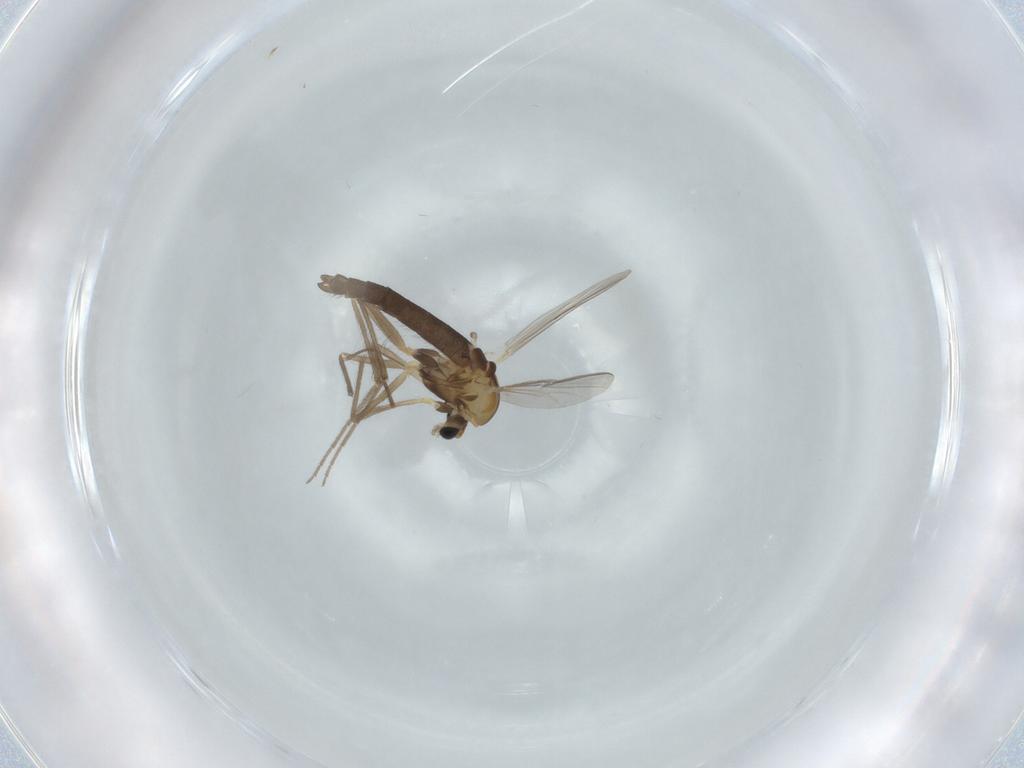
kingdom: Animalia
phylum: Arthropoda
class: Insecta
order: Diptera
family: Chironomidae
